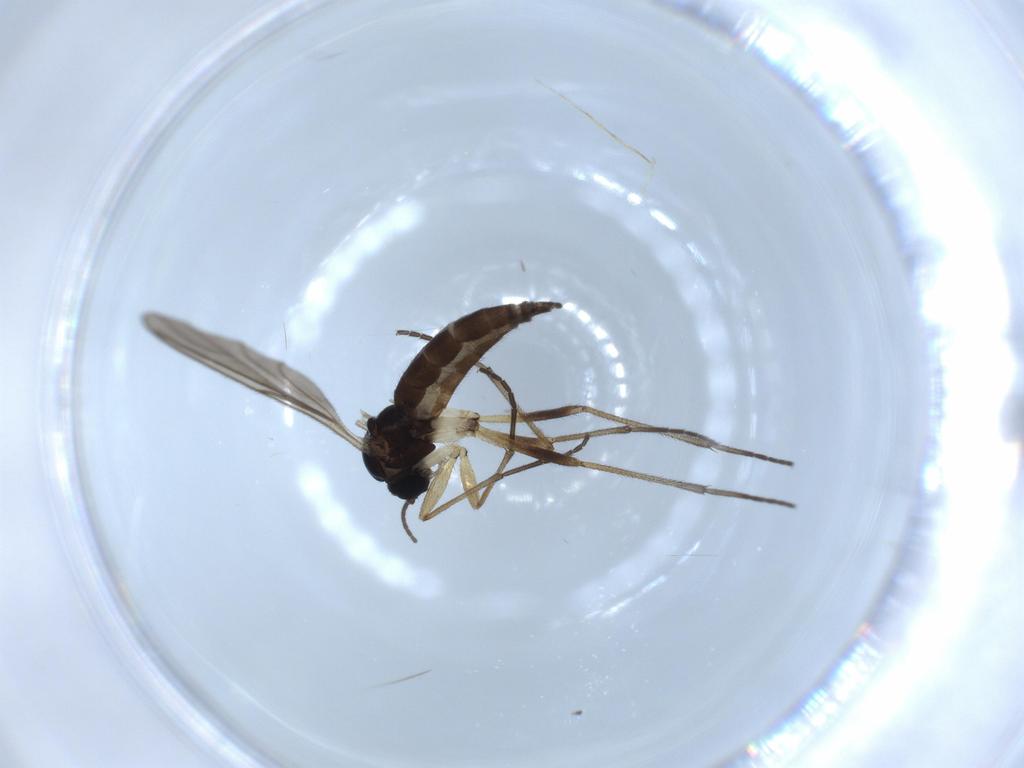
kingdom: Animalia
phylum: Arthropoda
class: Insecta
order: Diptera
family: Sciaridae
